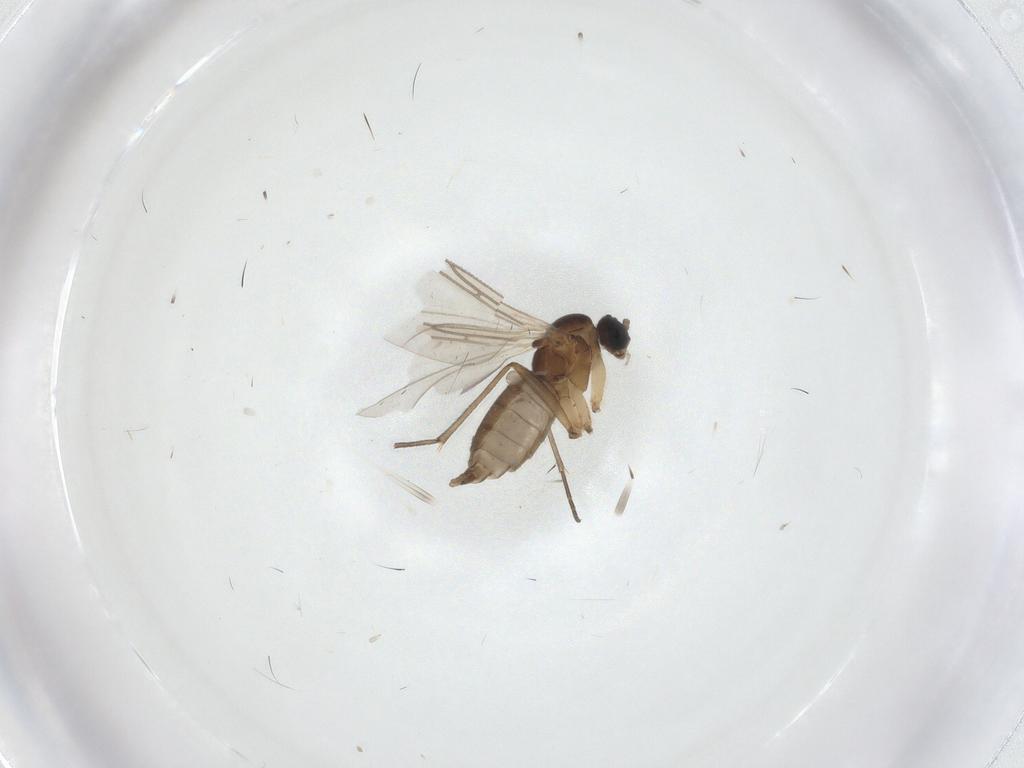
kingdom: Animalia
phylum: Arthropoda
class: Insecta
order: Diptera
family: Sciaridae
